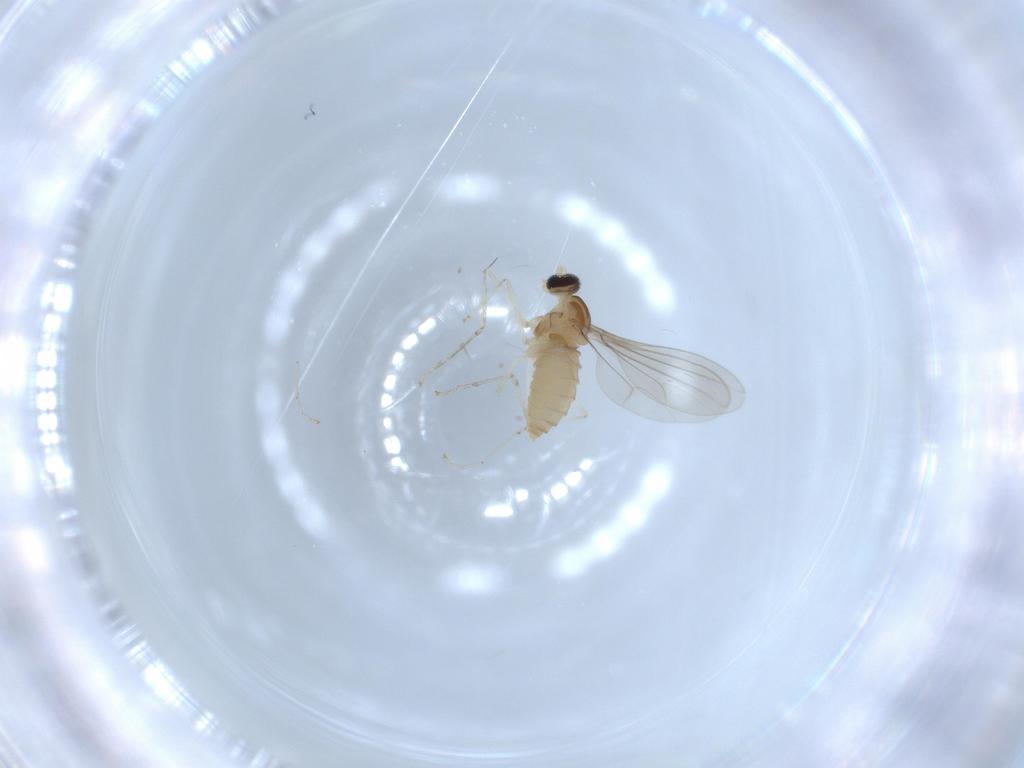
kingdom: Animalia
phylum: Arthropoda
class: Insecta
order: Diptera
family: Cecidomyiidae
